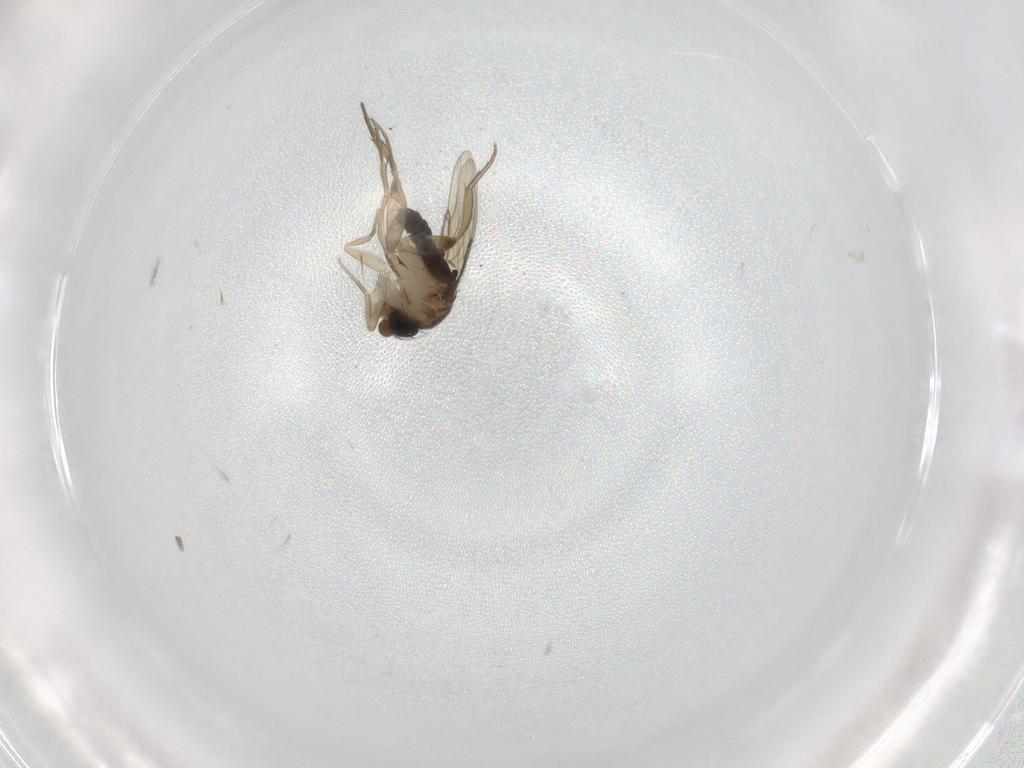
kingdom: Animalia
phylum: Arthropoda
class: Insecta
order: Diptera
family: Phoridae
